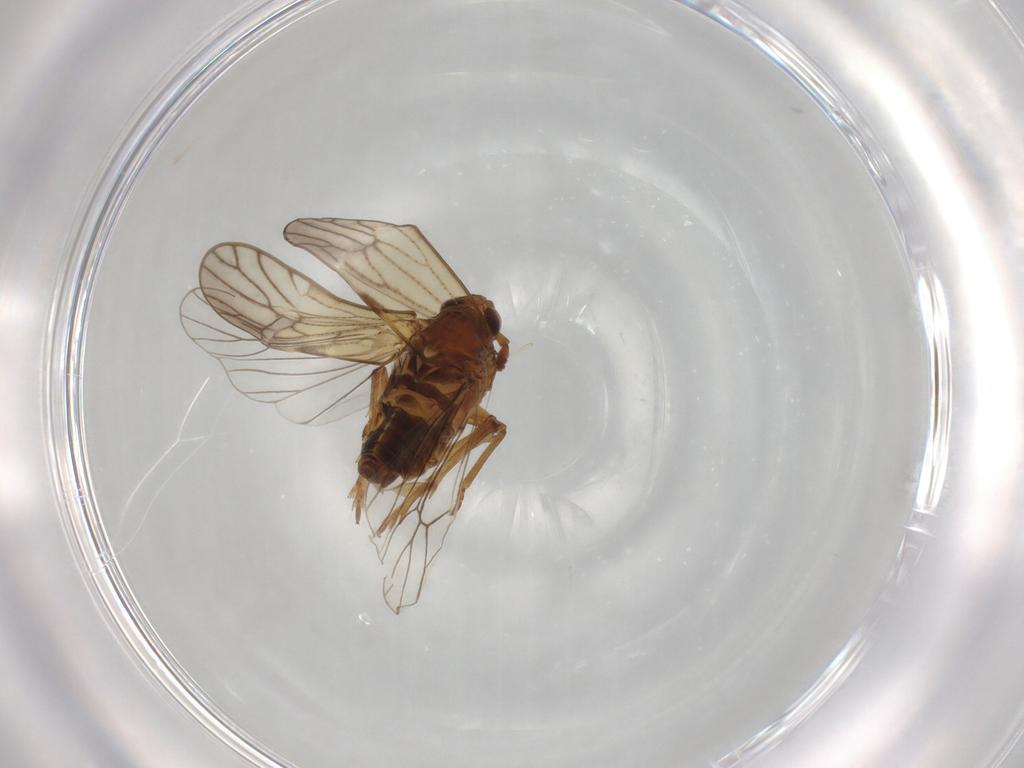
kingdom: Animalia
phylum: Arthropoda
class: Insecta
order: Hemiptera
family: Delphacidae
